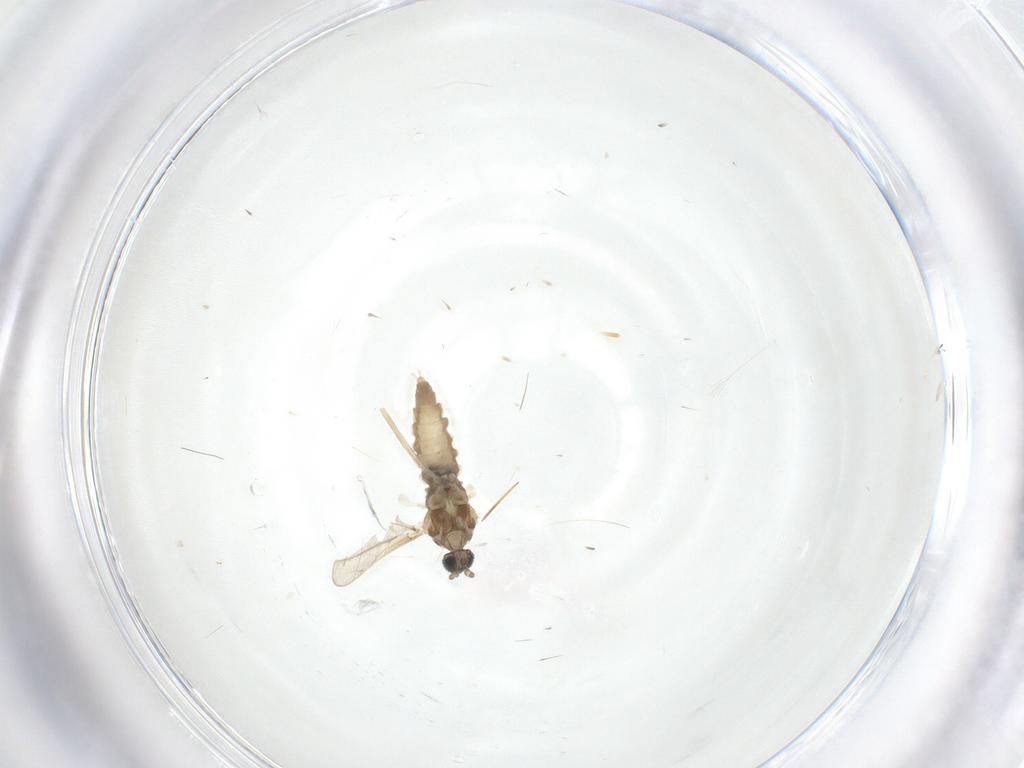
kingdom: Animalia
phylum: Arthropoda
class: Insecta
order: Diptera
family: Cecidomyiidae
